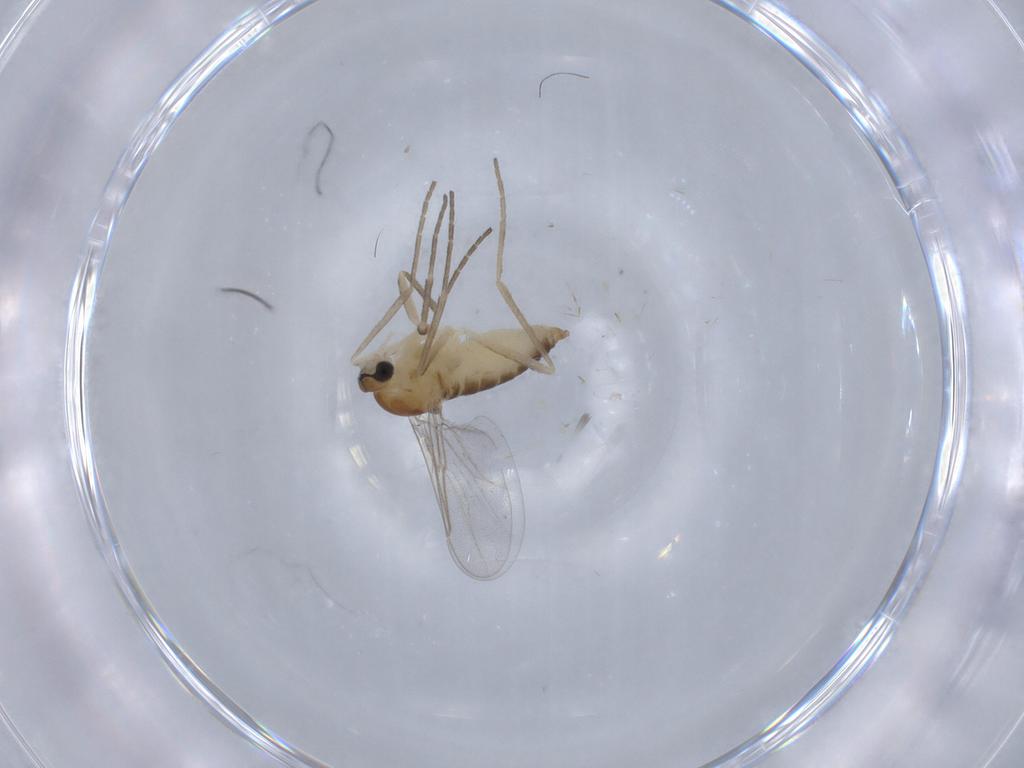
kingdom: Animalia
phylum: Arthropoda
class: Insecta
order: Diptera
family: Cecidomyiidae
